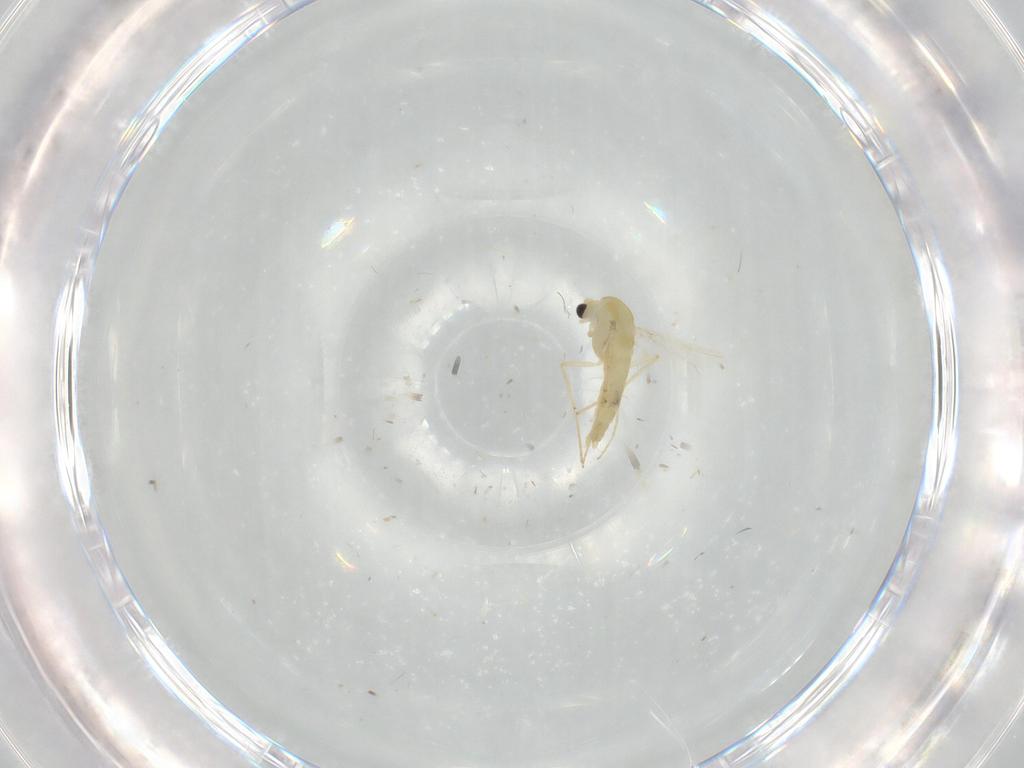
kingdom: Animalia
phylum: Arthropoda
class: Insecta
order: Diptera
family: Chironomidae
